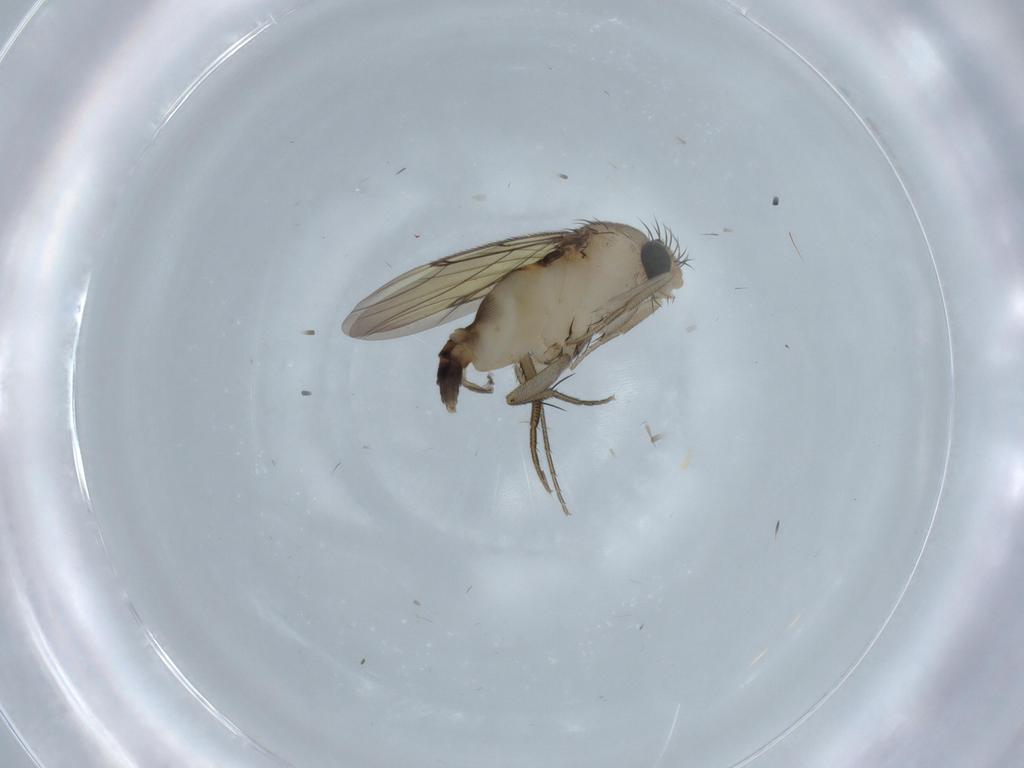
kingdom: Animalia
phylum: Arthropoda
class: Insecta
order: Diptera
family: Phoridae
